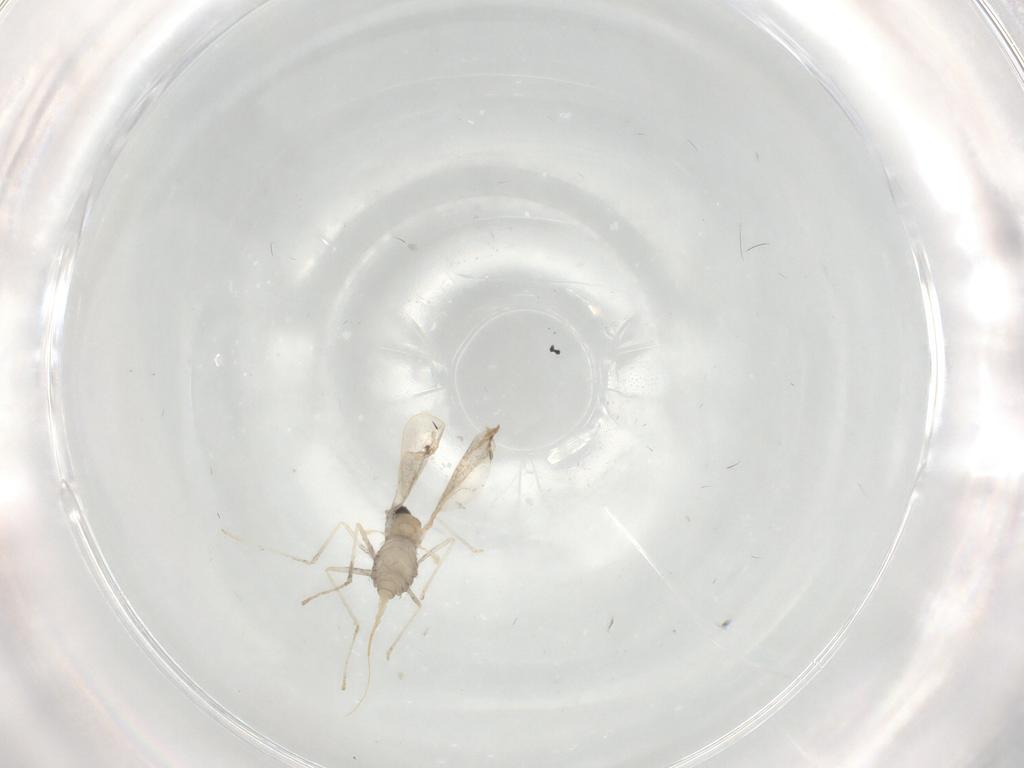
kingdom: Animalia
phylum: Arthropoda
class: Insecta
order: Diptera
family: Cecidomyiidae
